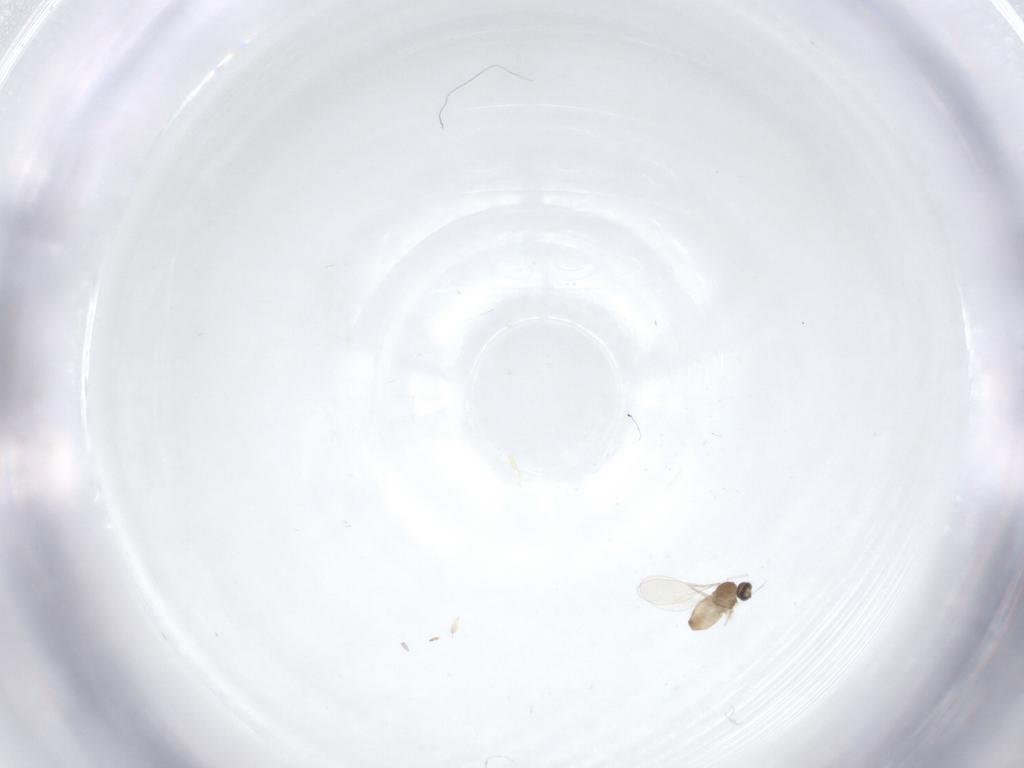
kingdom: Animalia
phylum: Arthropoda
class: Insecta
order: Diptera
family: Cecidomyiidae
